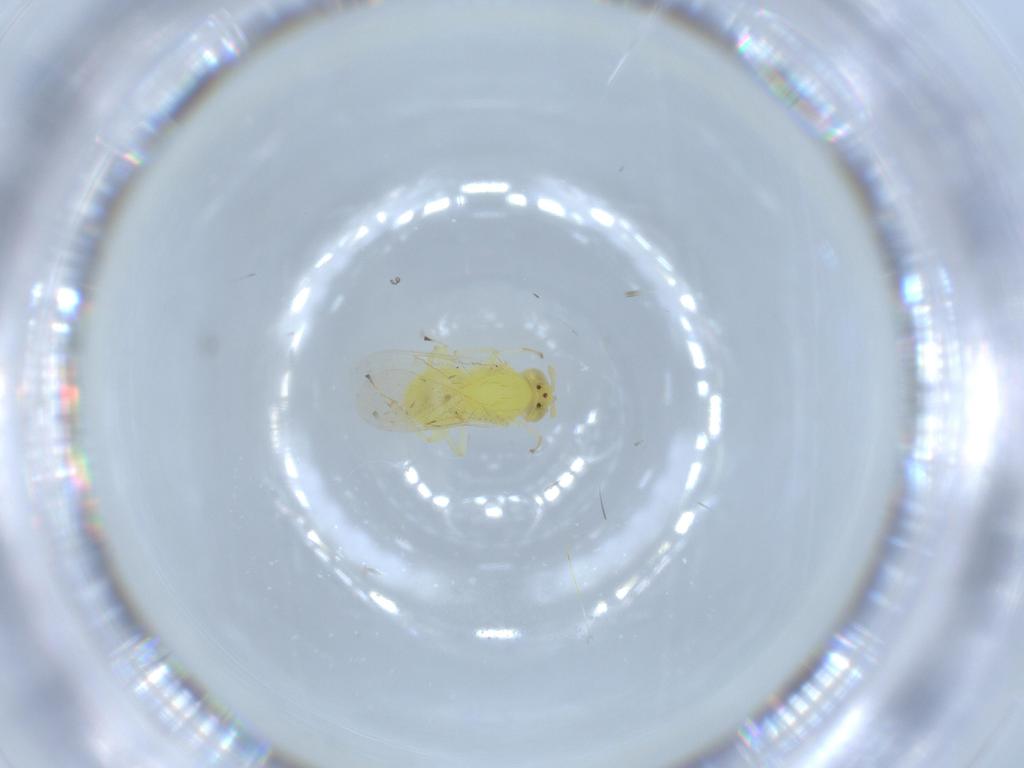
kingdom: Animalia
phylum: Arthropoda
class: Insecta
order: Hymenoptera
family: Aphelinidae
